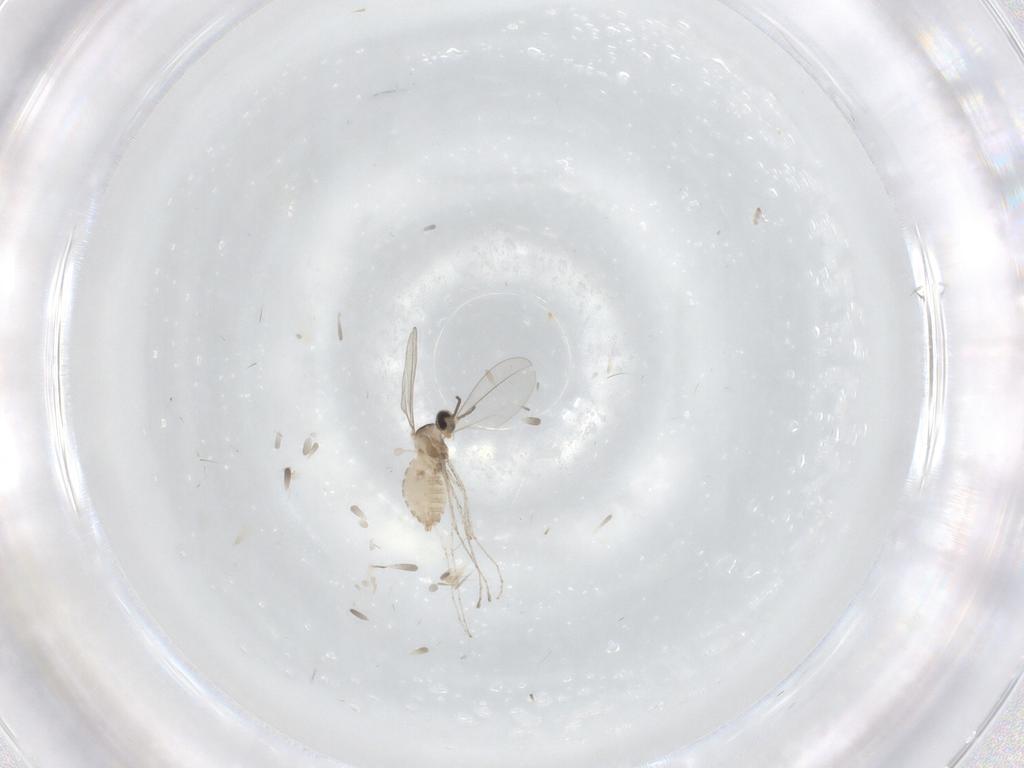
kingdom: Animalia
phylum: Arthropoda
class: Insecta
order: Diptera
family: Cecidomyiidae
